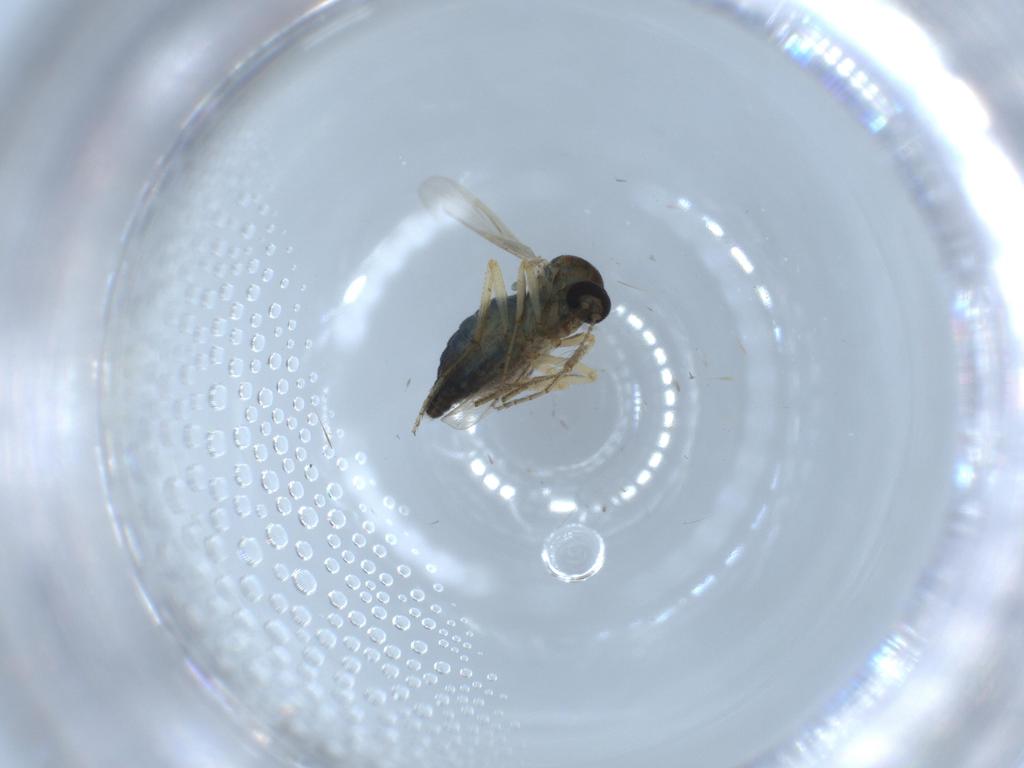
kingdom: Animalia
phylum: Arthropoda
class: Insecta
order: Diptera
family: Ceratopogonidae
